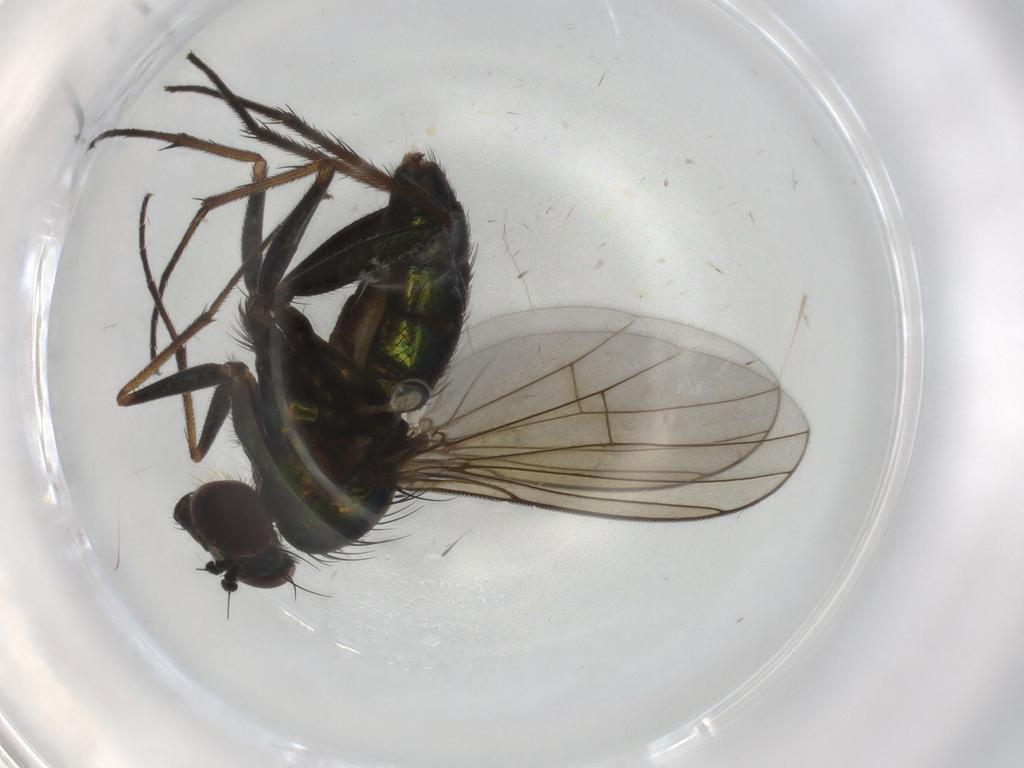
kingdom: Animalia
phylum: Arthropoda
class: Insecta
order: Diptera
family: Dolichopodidae
